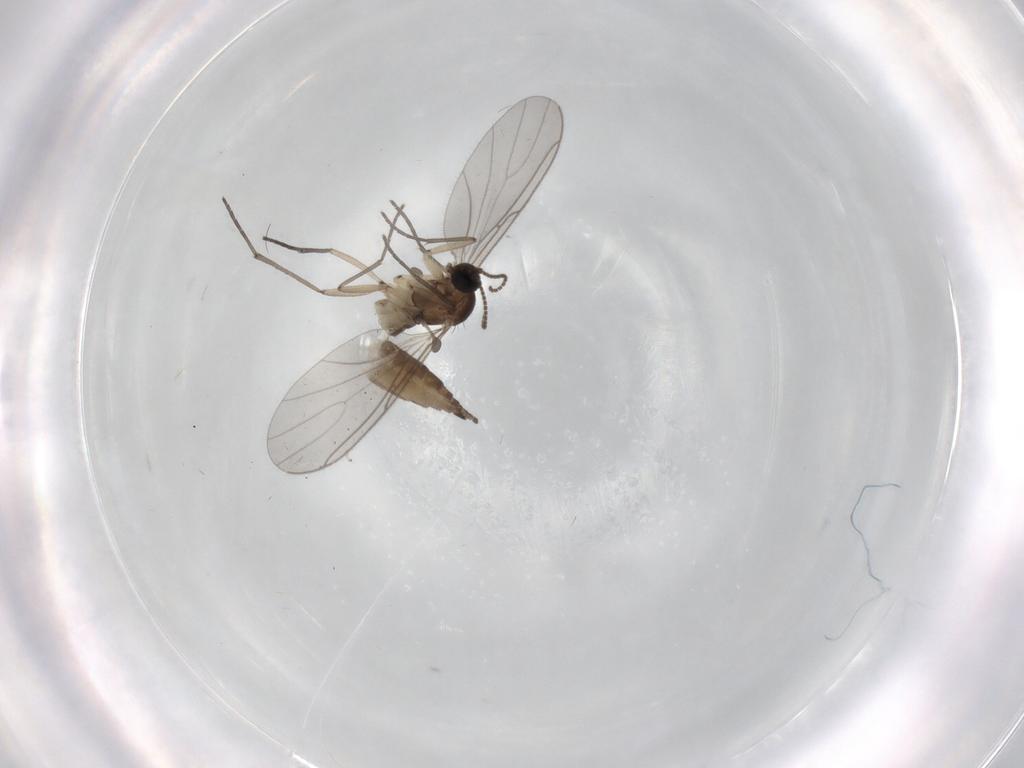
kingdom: Animalia
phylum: Arthropoda
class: Insecta
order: Diptera
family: Sciaridae
